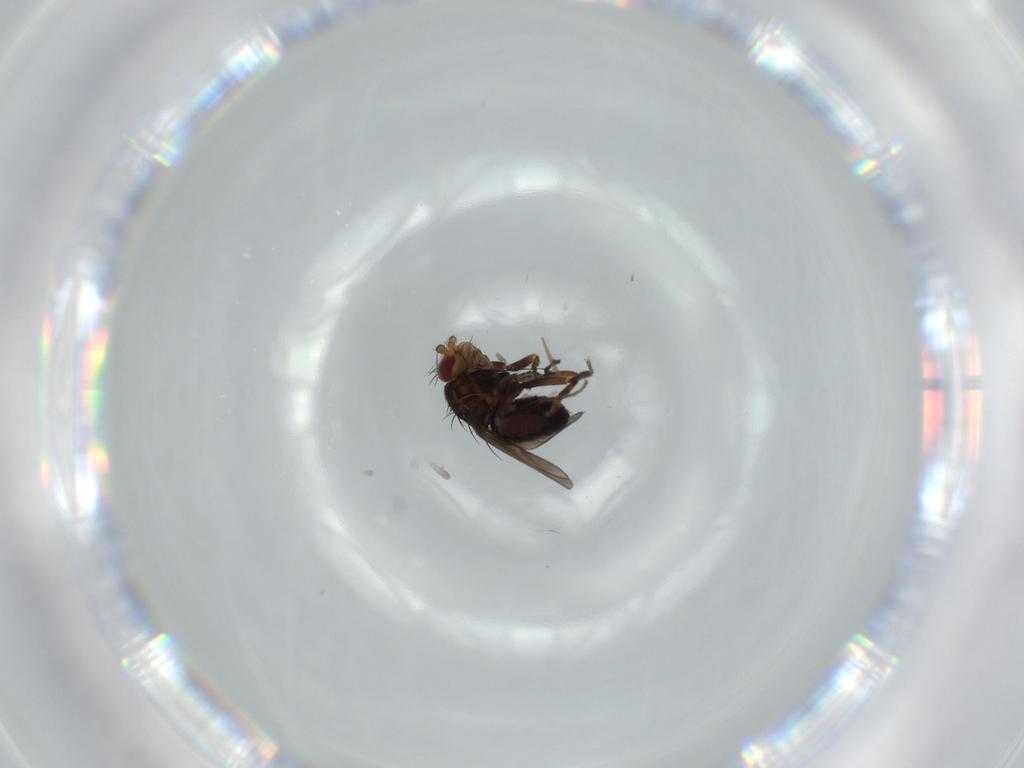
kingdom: Animalia
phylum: Arthropoda
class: Insecta
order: Diptera
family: Sphaeroceridae
